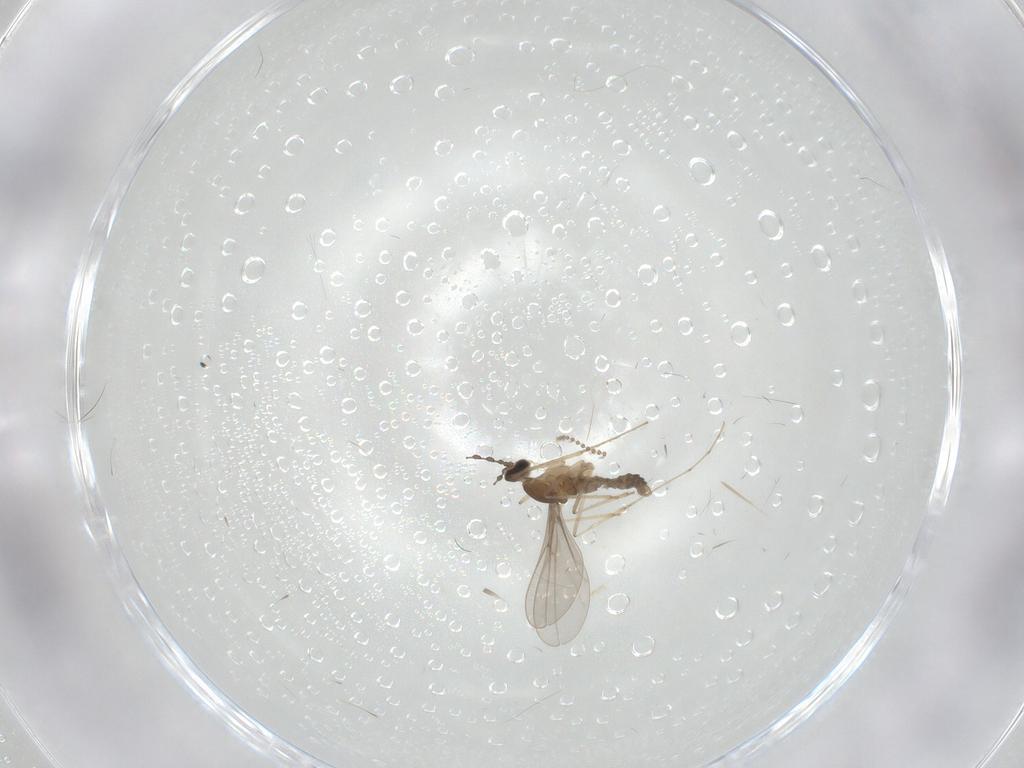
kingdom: Animalia
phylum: Arthropoda
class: Insecta
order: Diptera
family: Cecidomyiidae
